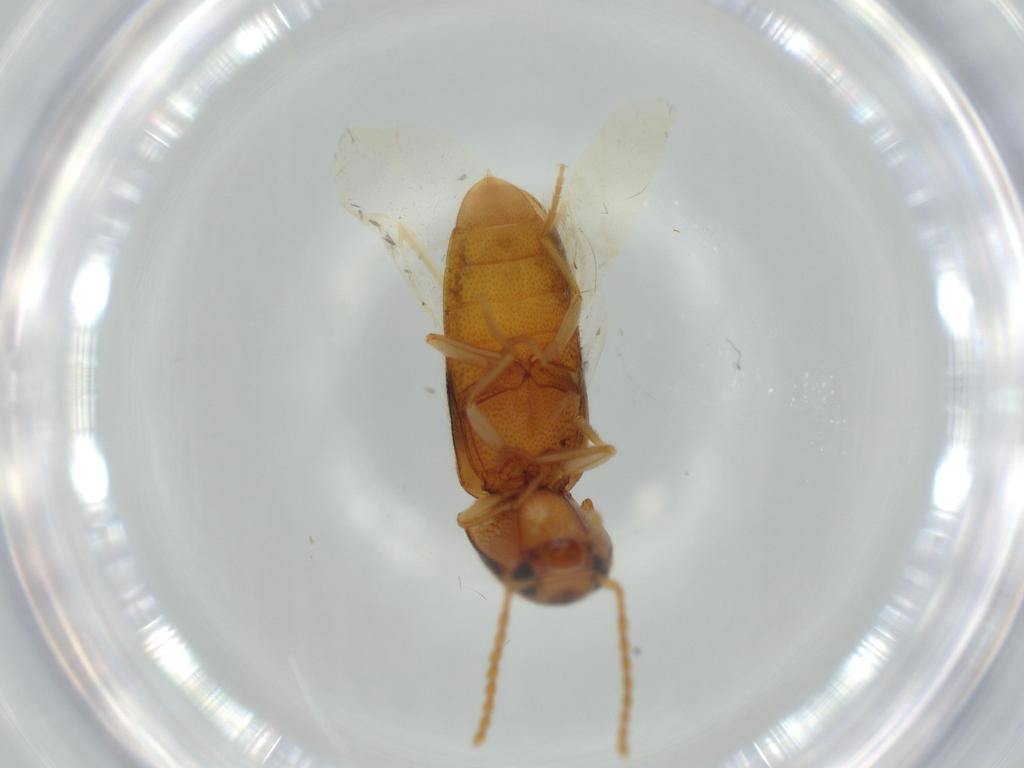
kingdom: Animalia
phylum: Arthropoda
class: Insecta
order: Coleoptera
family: Elateridae
